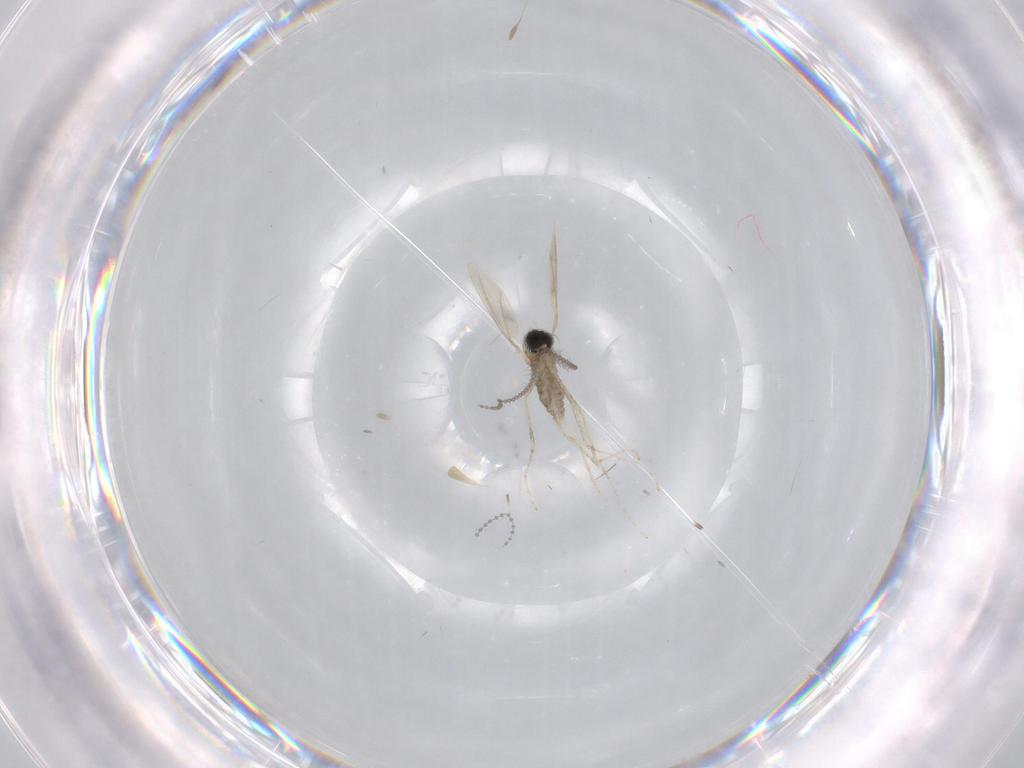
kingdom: Animalia
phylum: Arthropoda
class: Insecta
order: Diptera
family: Cecidomyiidae
